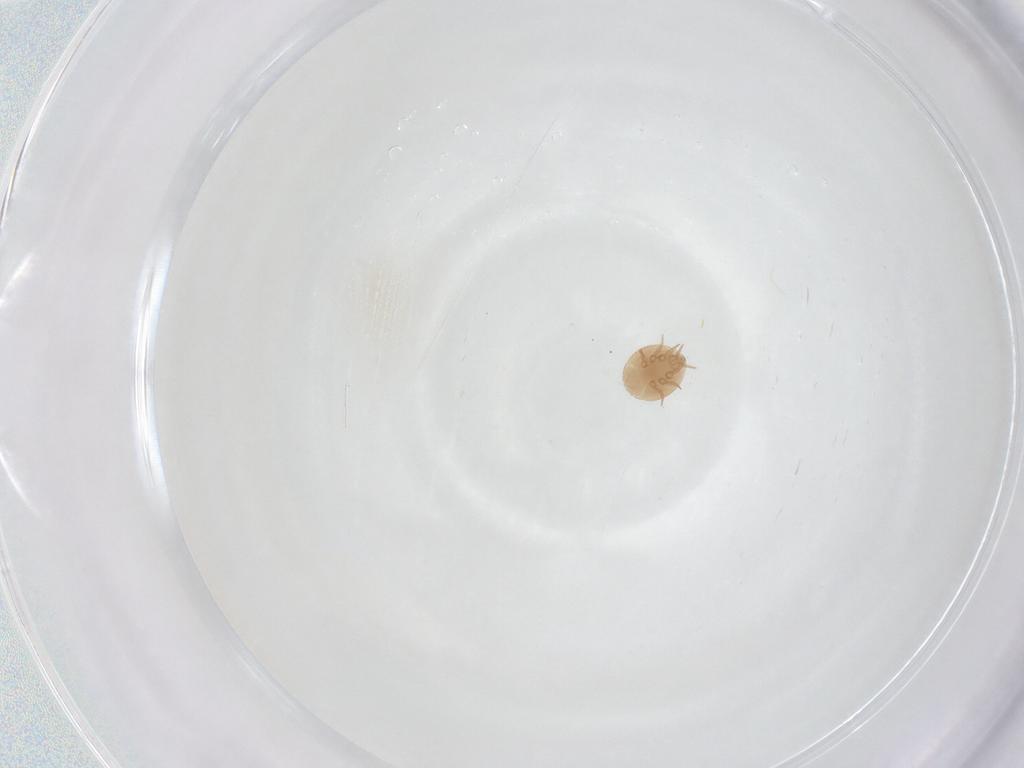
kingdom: Animalia
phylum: Arthropoda
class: Arachnida
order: Mesostigmata
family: Trematuridae
